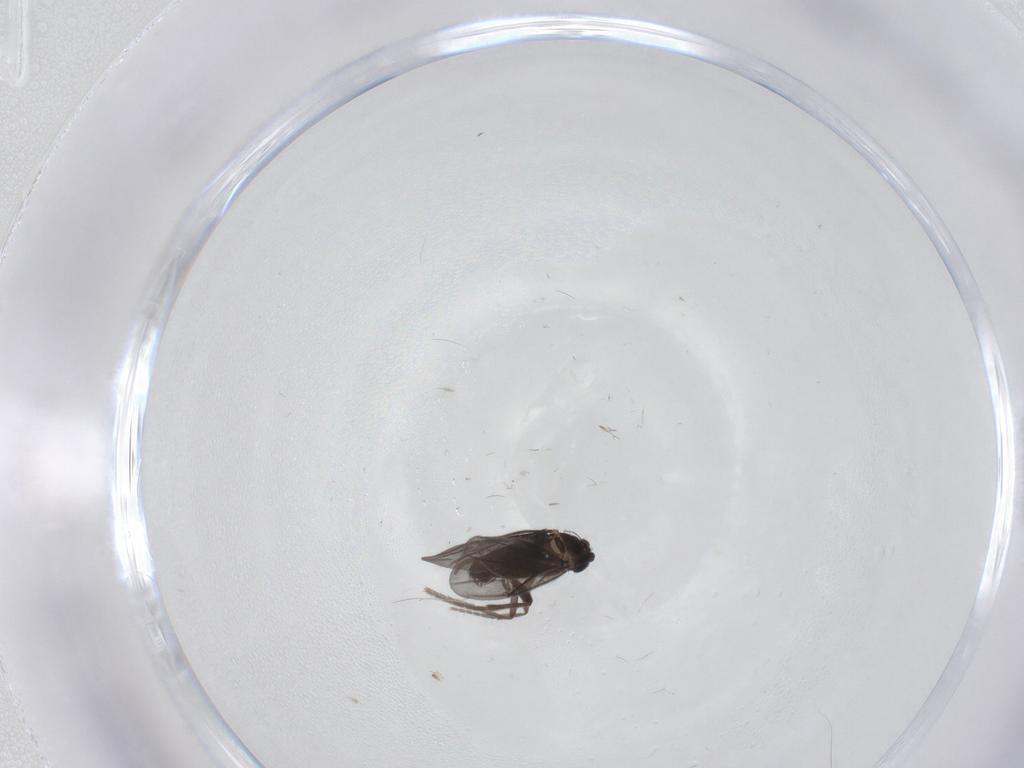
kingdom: Animalia
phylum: Arthropoda
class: Insecta
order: Diptera
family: Phoridae
